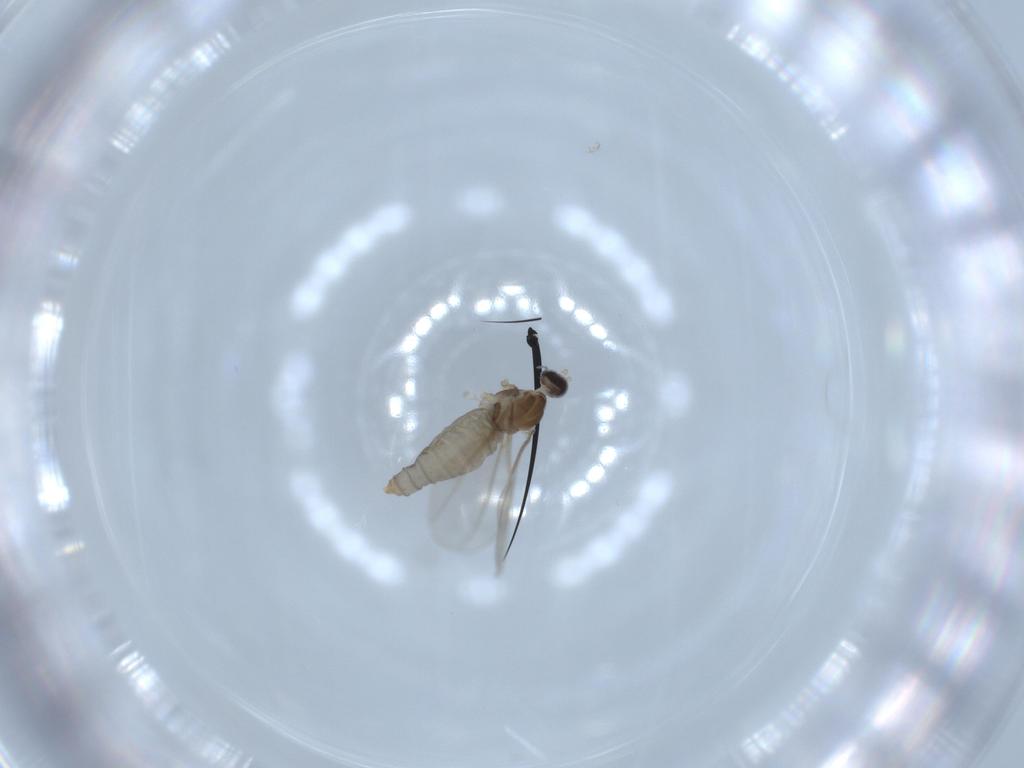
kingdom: Animalia
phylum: Arthropoda
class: Insecta
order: Diptera
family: Cecidomyiidae
